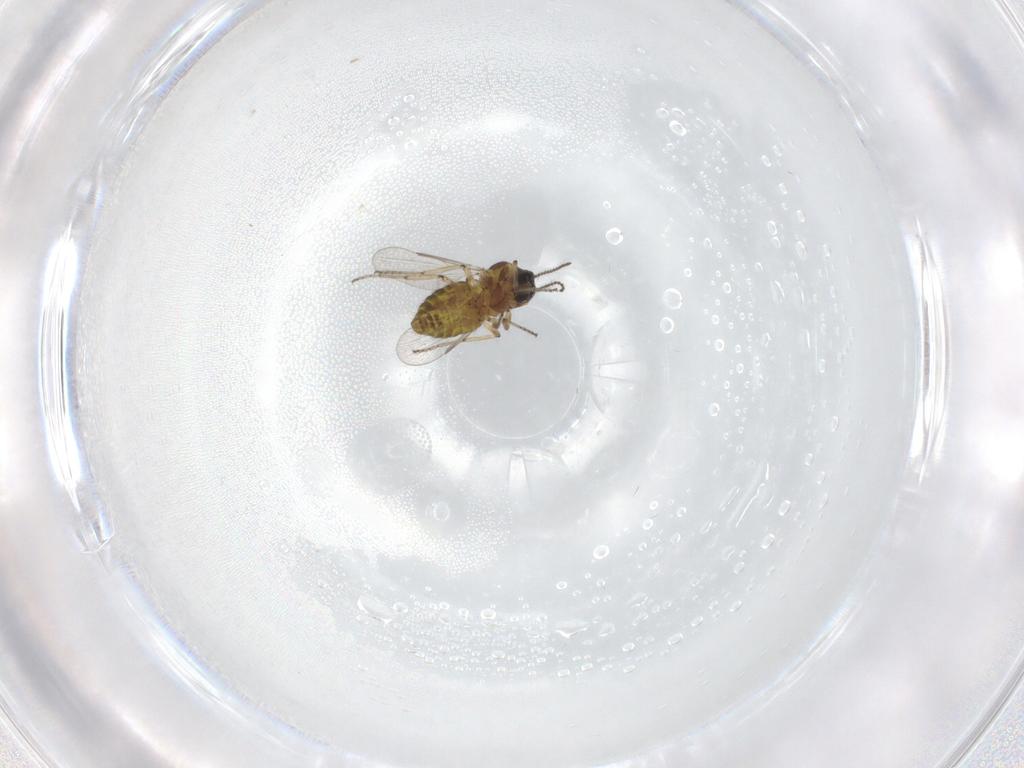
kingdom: Animalia
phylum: Arthropoda
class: Insecta
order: Diptera
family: Ceratopogonidae
